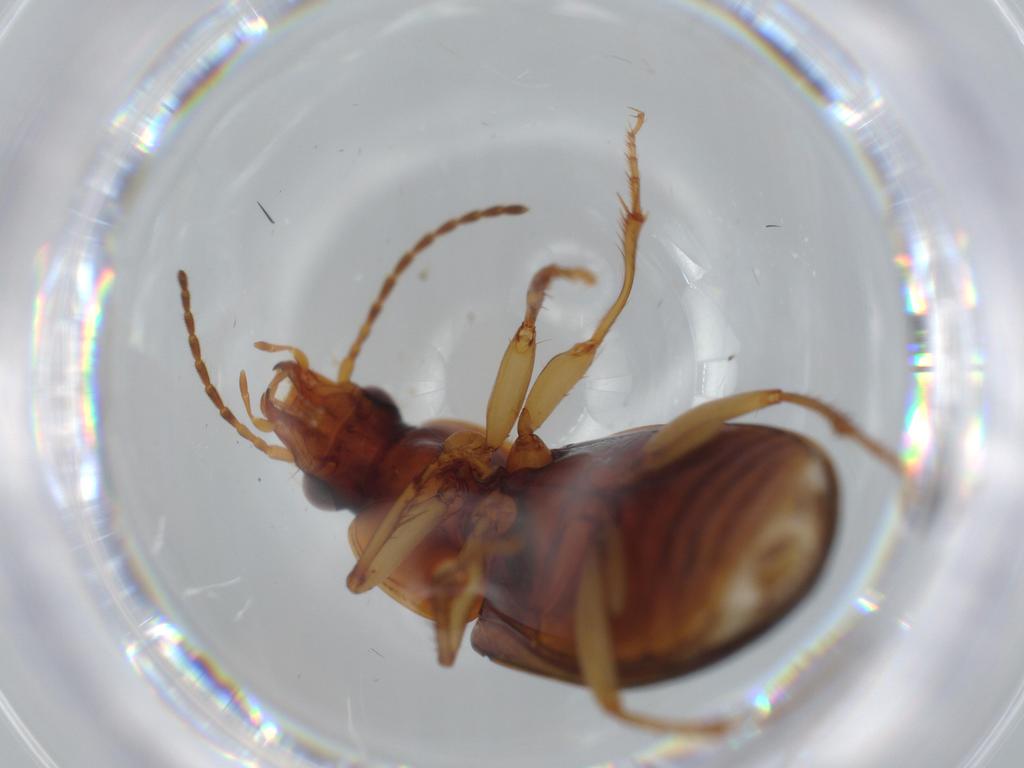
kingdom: Animalia
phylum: Arthropoda
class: Insecta
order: Coleoptera
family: Carabidae
